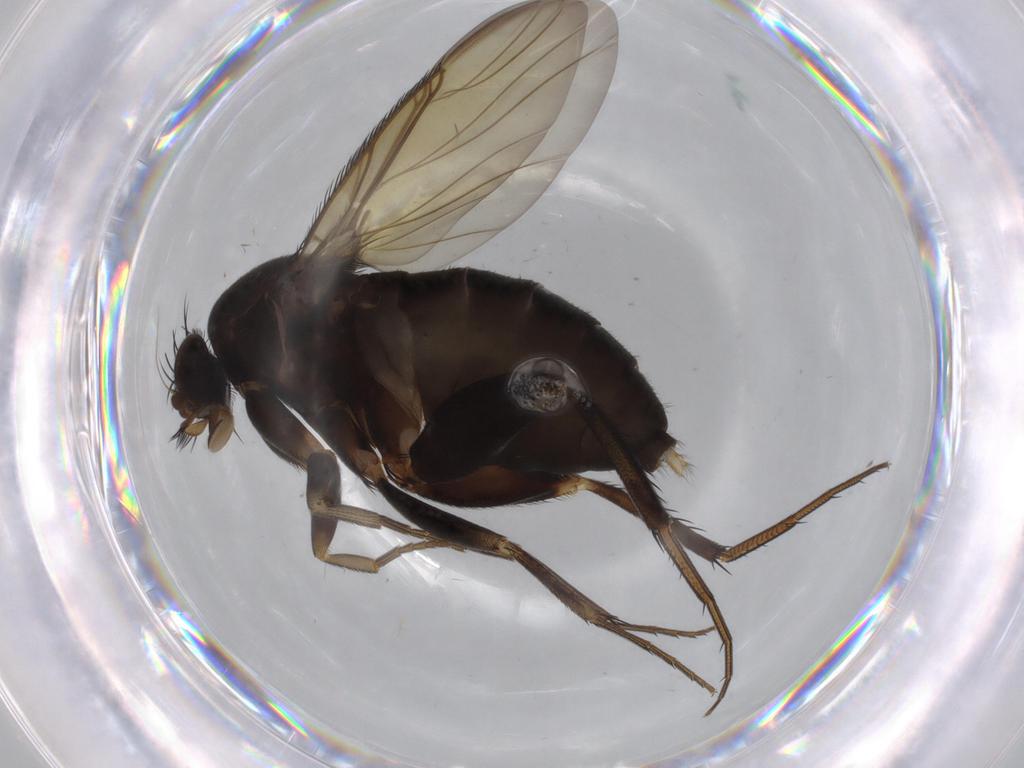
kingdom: Animalia
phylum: Arthropoda
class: Insecta
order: Diptera
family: Phoridae
